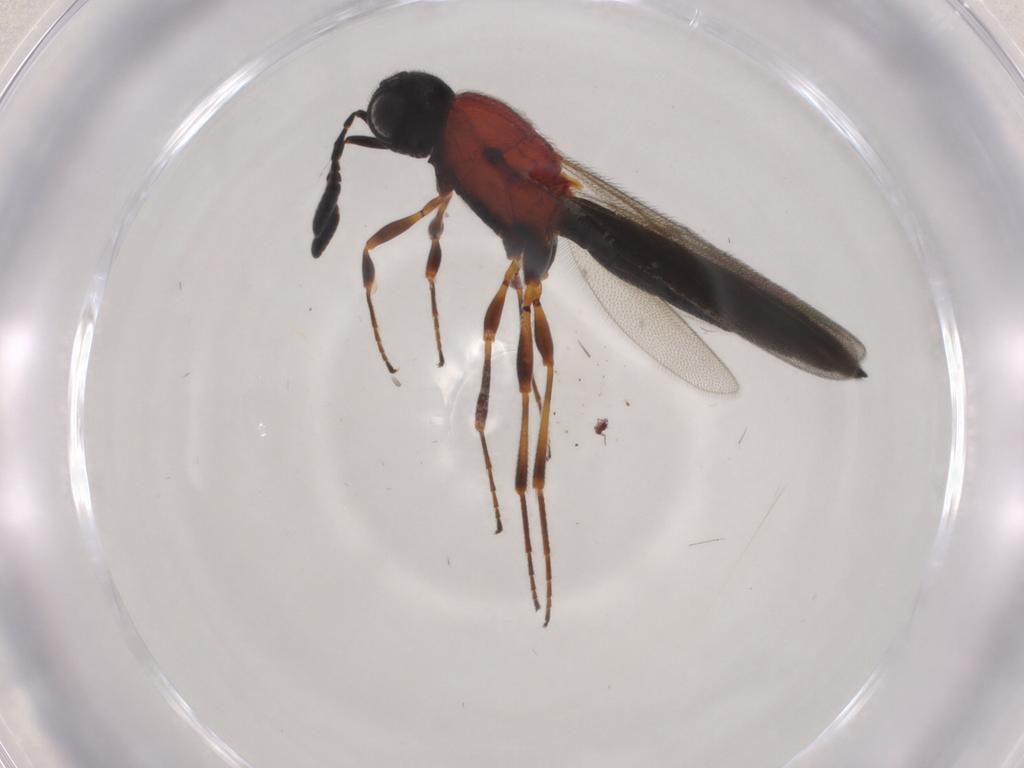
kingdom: Animalia
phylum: Arthropoda
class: Insecta
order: Hymenoptera
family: Scelionidae
